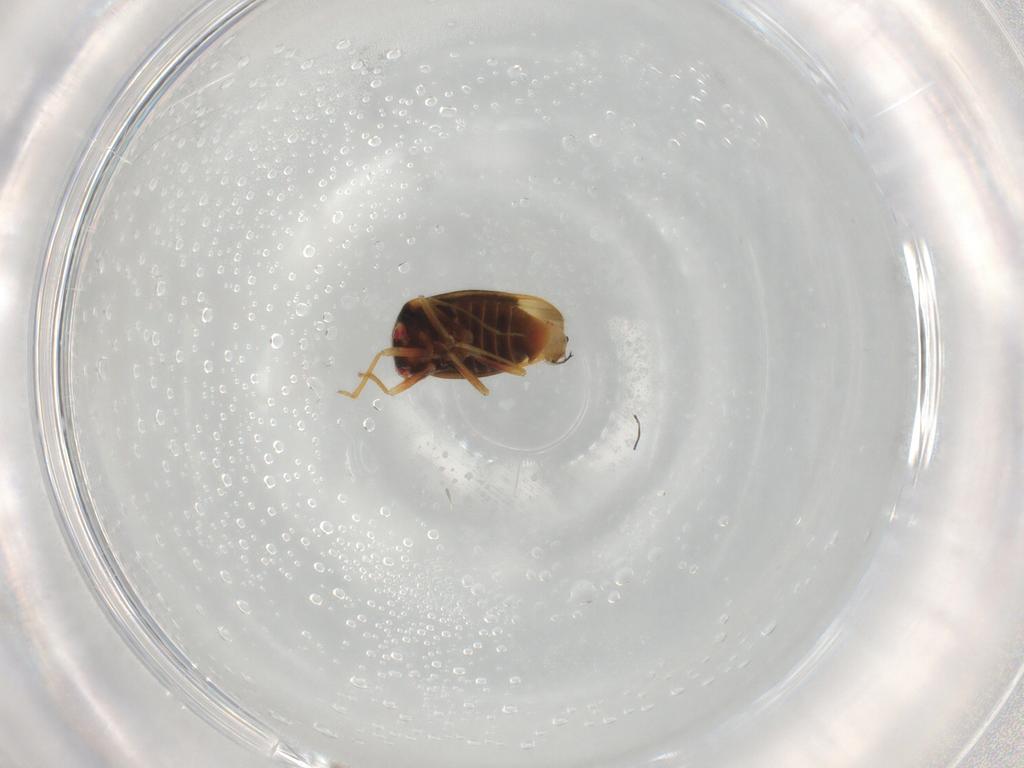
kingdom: Animalia
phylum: Arthropoda
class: Insecta
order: Hemiptera
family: Schizopteridae
